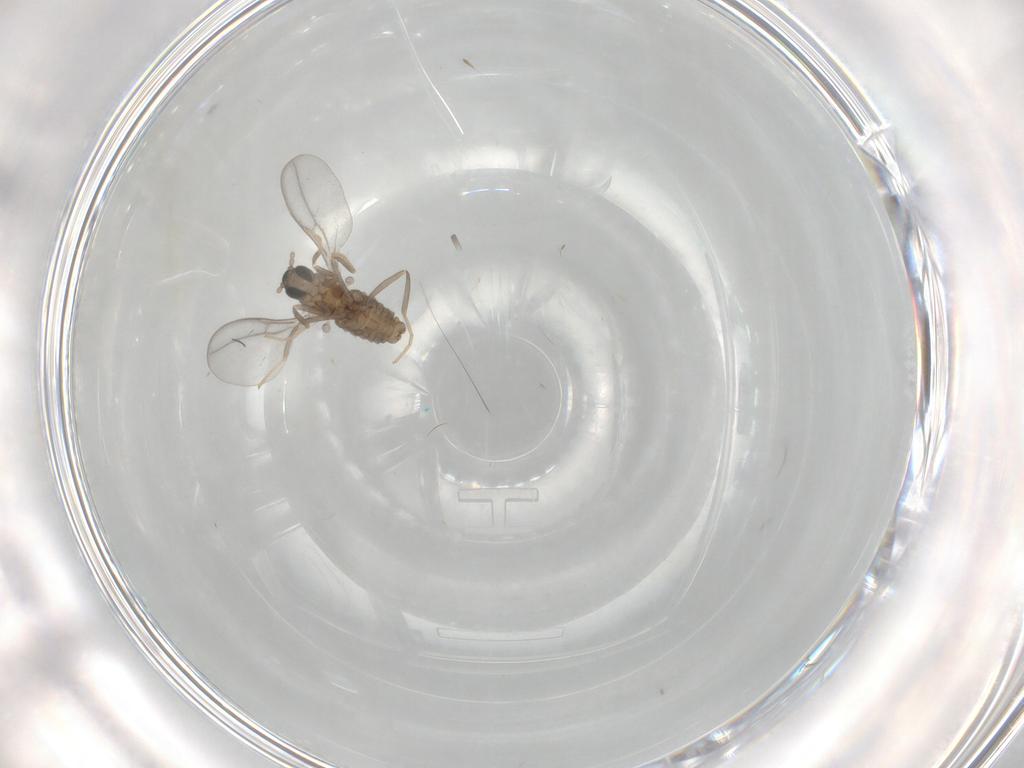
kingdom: Animalia
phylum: Arthropoda
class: Insecta
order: Diptera
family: Cecidomyiidae
